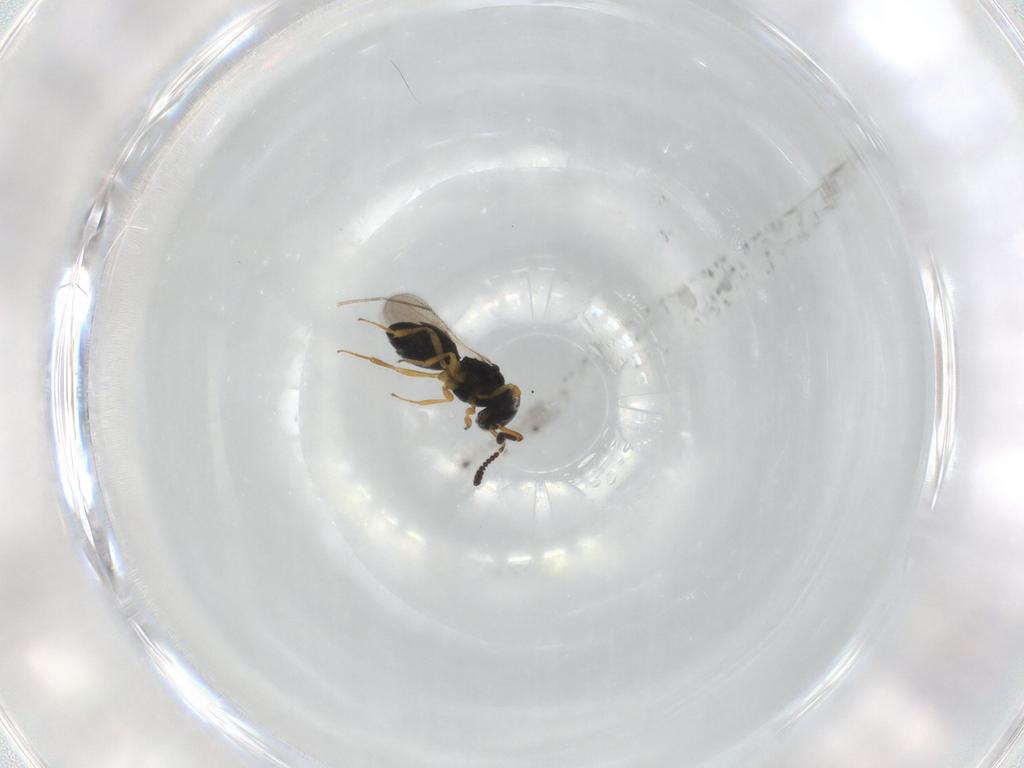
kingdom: Animalia
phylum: Arthropoda
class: Insecta
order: Hymenoptera
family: Scelionidae
